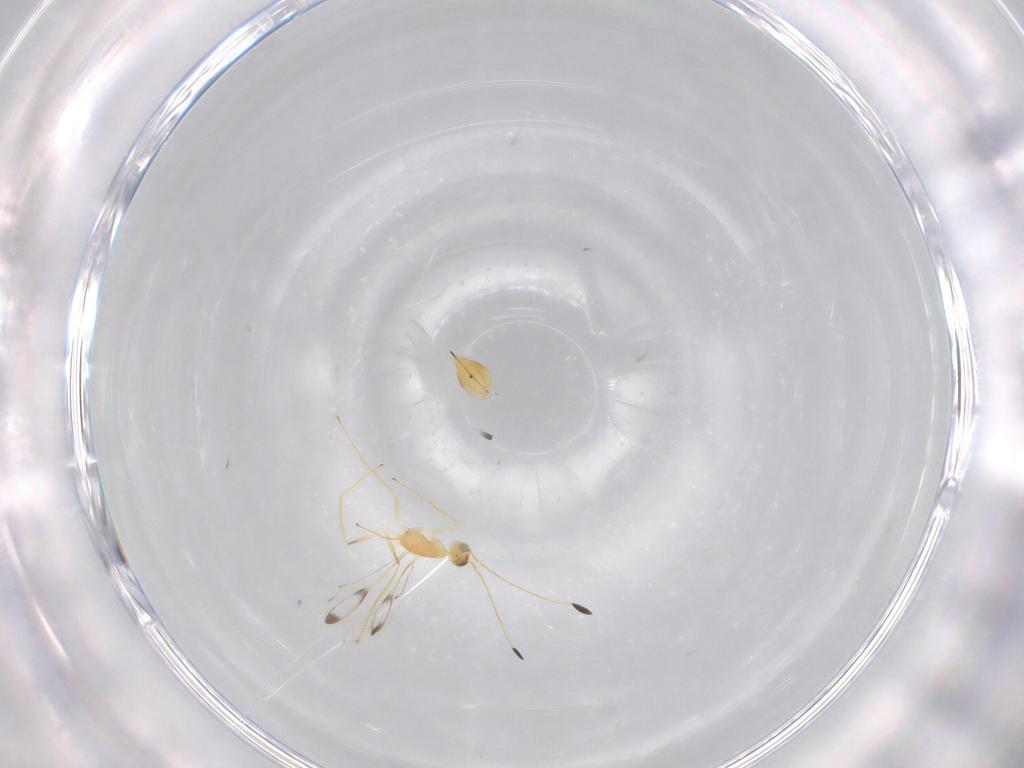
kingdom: Animalia
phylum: Arthropoda
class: Insecta
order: Hymenoptera
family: Mymaridae
